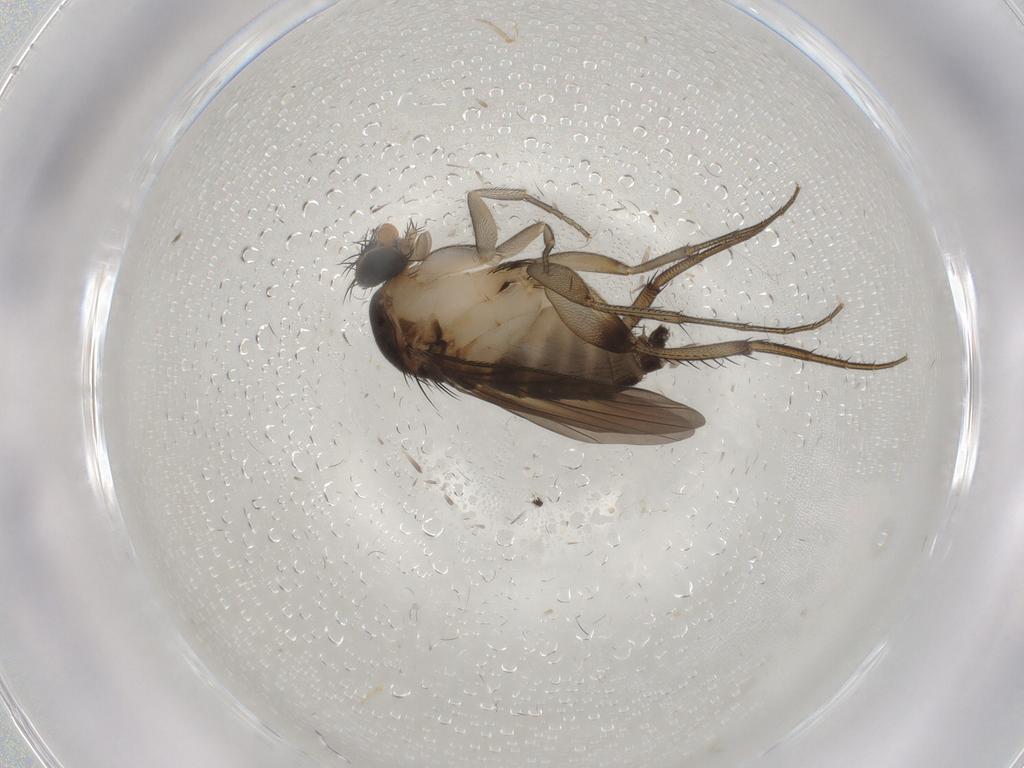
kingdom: Animalia
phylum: Arthropoda
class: Insecta
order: Diptera
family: Phoridae
